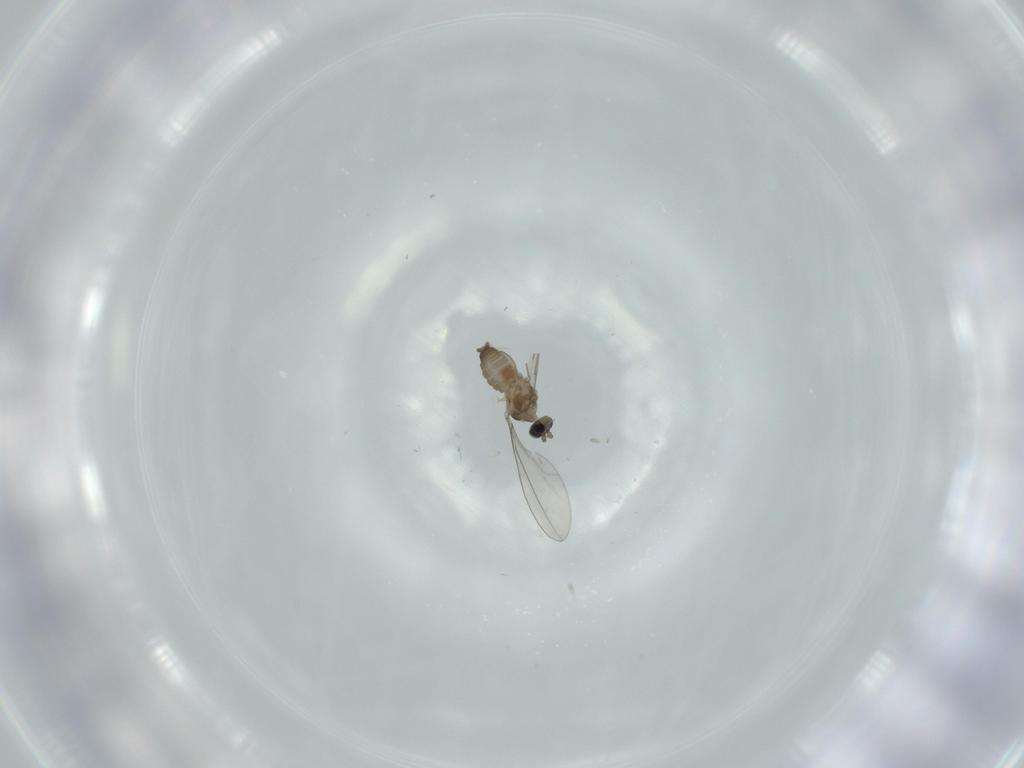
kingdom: Animalia
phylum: Arthropoda
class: Insecta
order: Diptera
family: Cecidomyiidae
